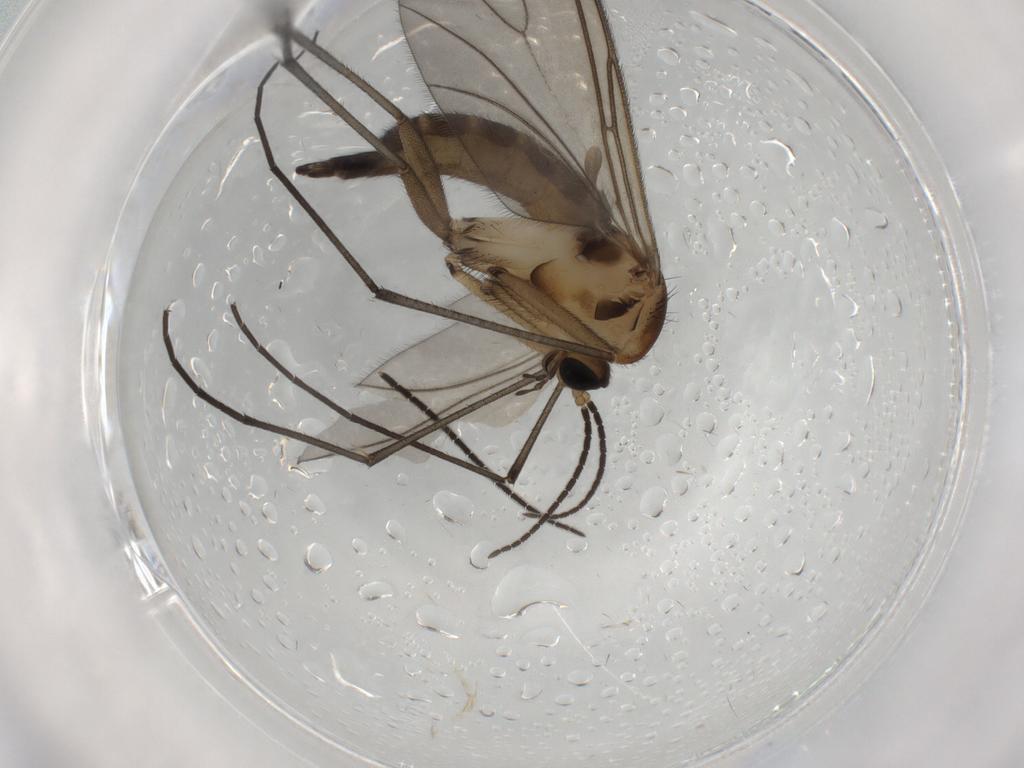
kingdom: Animalia
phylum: Arthropoda
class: Insecta
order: Diptera
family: Sciaridae
